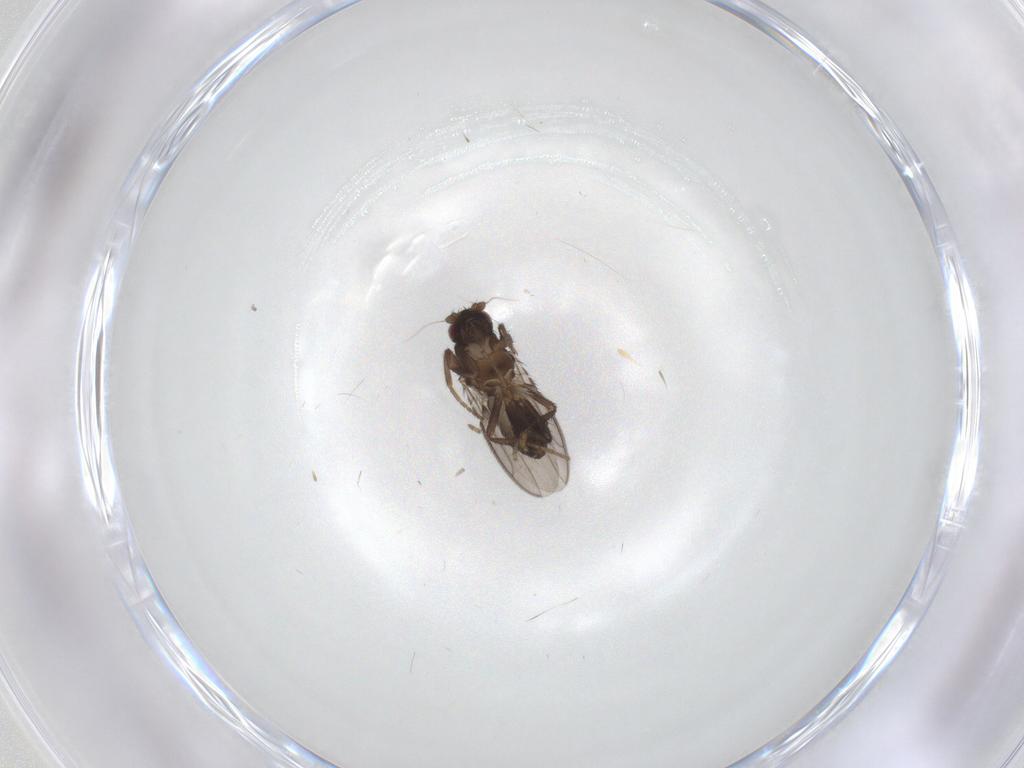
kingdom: Animalia
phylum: Arthropoda
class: Insecta
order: Diptera
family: Sphaeroceridae
